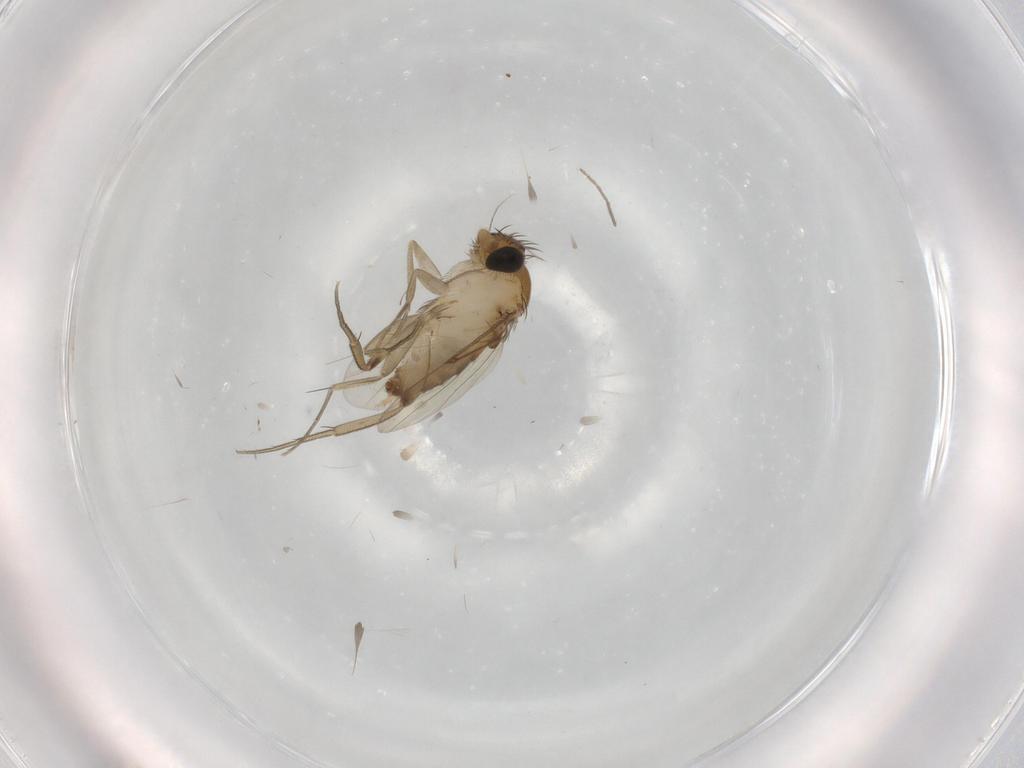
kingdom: Animalia
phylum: Arthropoda
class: Insecta
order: Diptera
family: Phoridae
